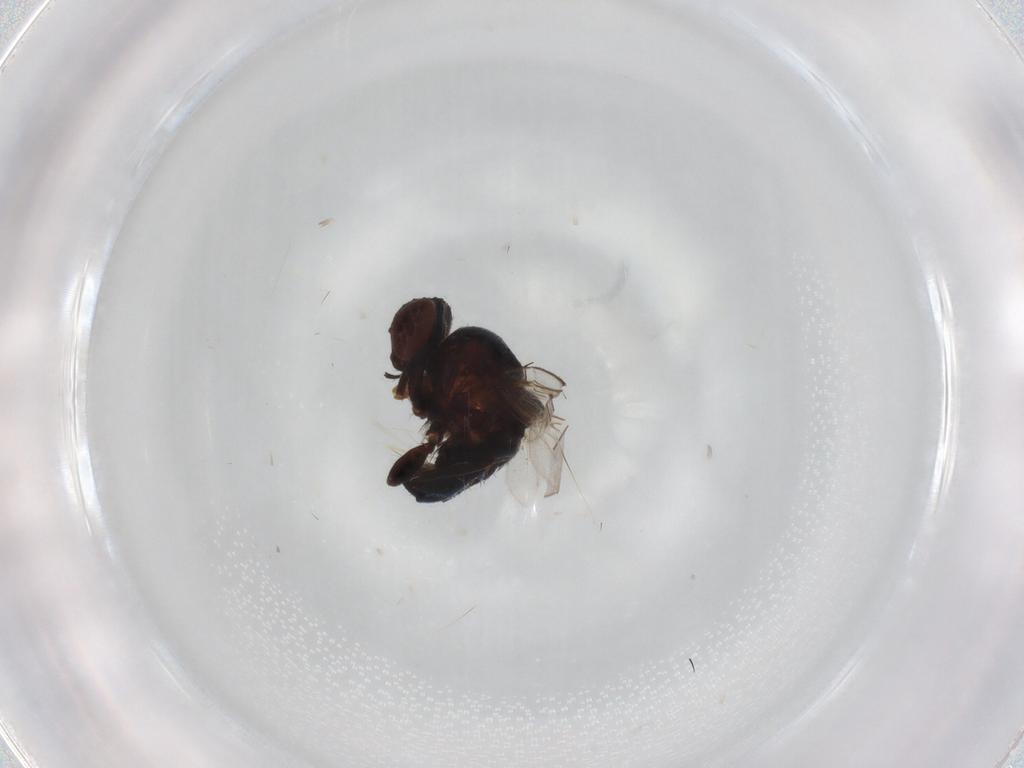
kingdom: Animalia
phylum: Arthropoda
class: Insecta
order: Diptera
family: Agromyzidae
